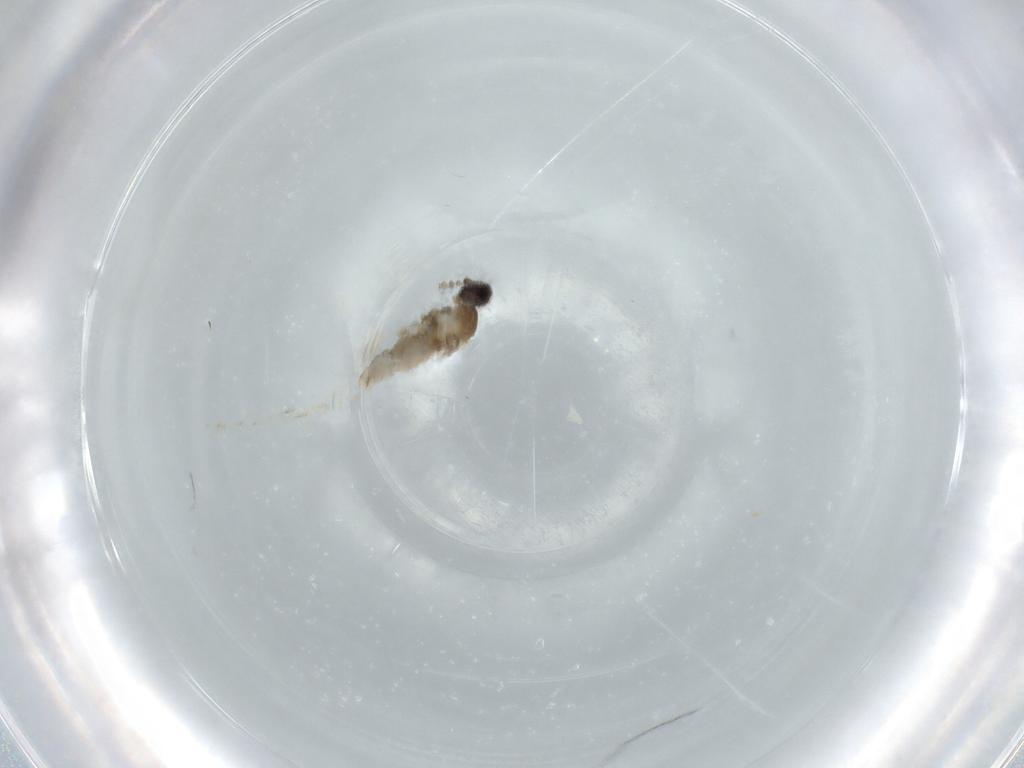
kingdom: Animalia
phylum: Arthropoda
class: Insecta
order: Diptera
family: Cecidomyiidae
